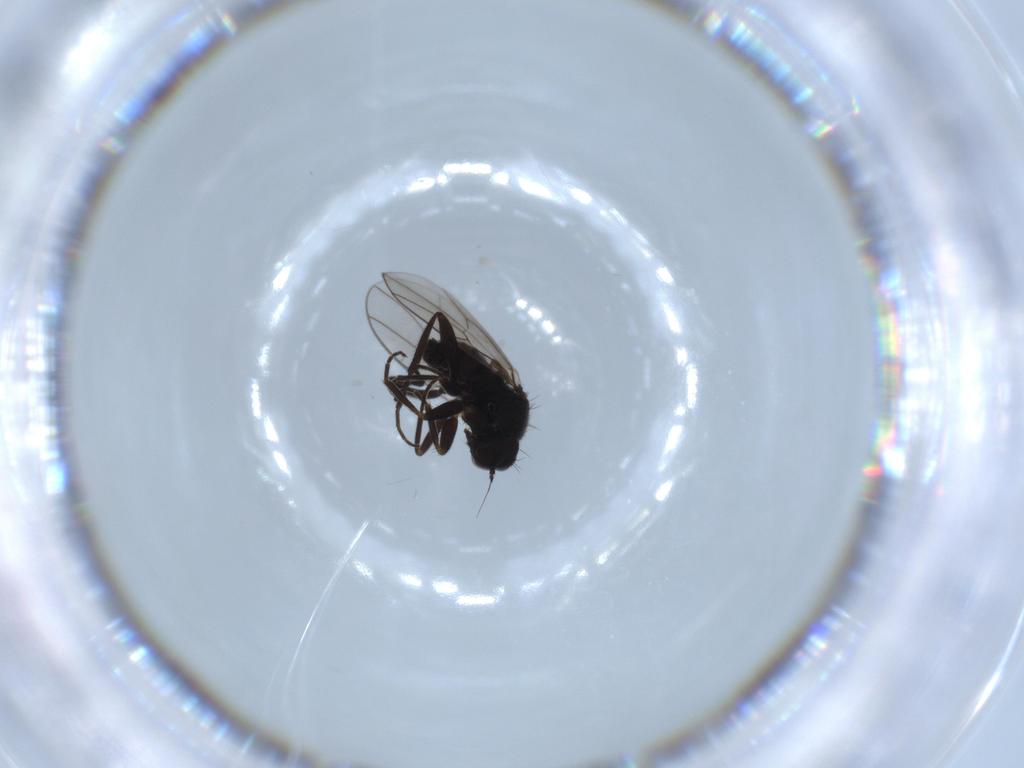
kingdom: Animalia
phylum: Arthropoda
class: Insecta
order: Diptera
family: Hybotidae
